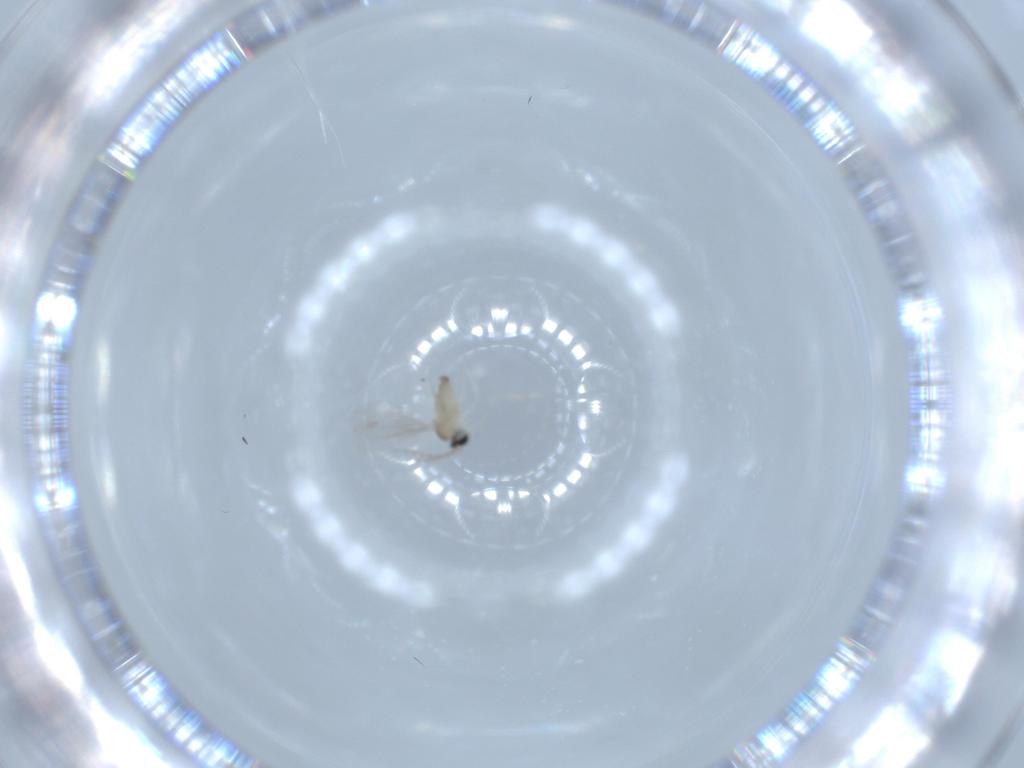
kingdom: Animalia
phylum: Arthropoda
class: Insecta
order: Diptera
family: Cecidomyiidae
